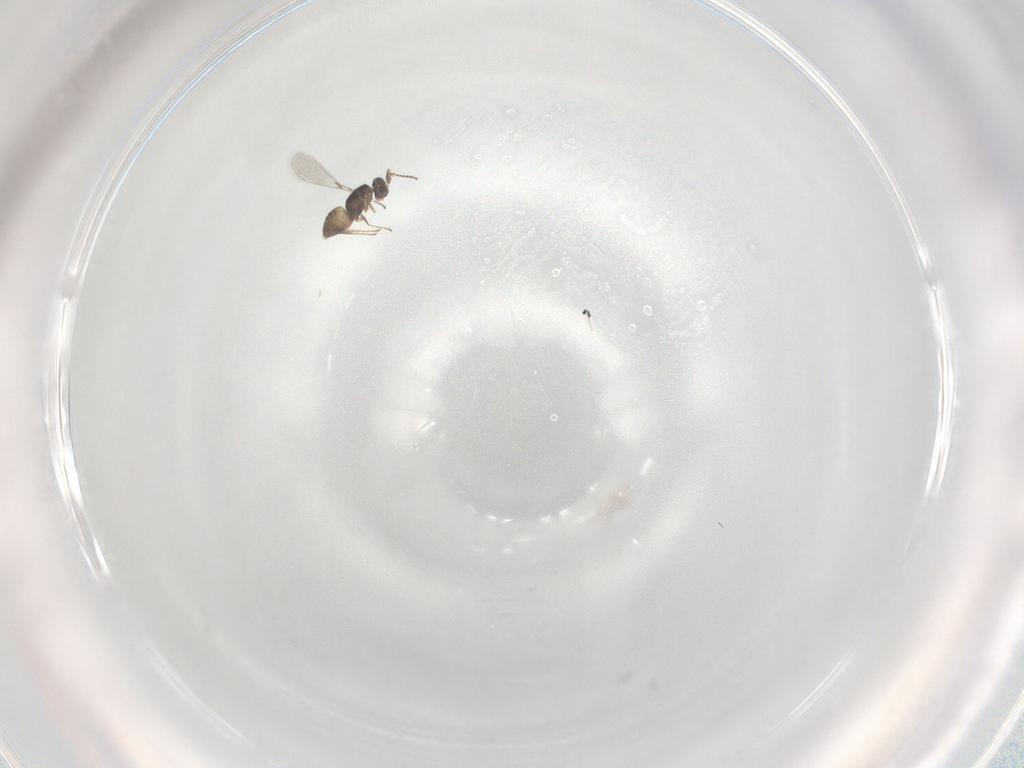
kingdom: Animalia
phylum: Arthropoda
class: Insecta
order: Hymenoptera
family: Mymaridae
